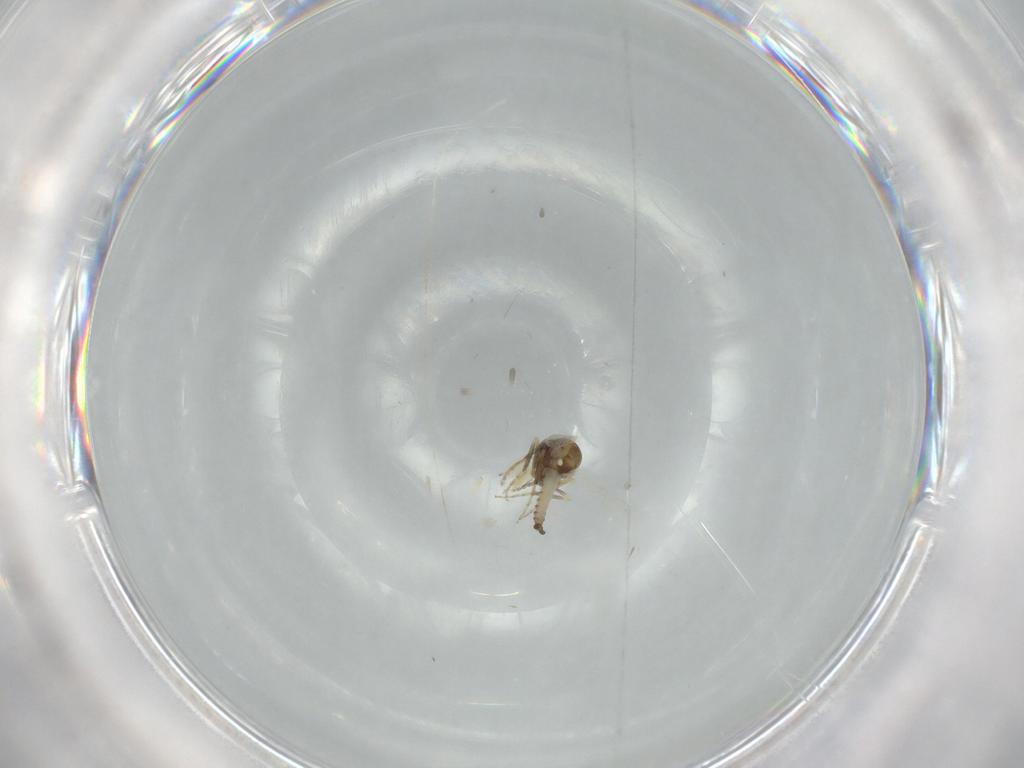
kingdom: Animalia
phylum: Arthropoda
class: Insecta
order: Diptera
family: Ceratopogonidae
